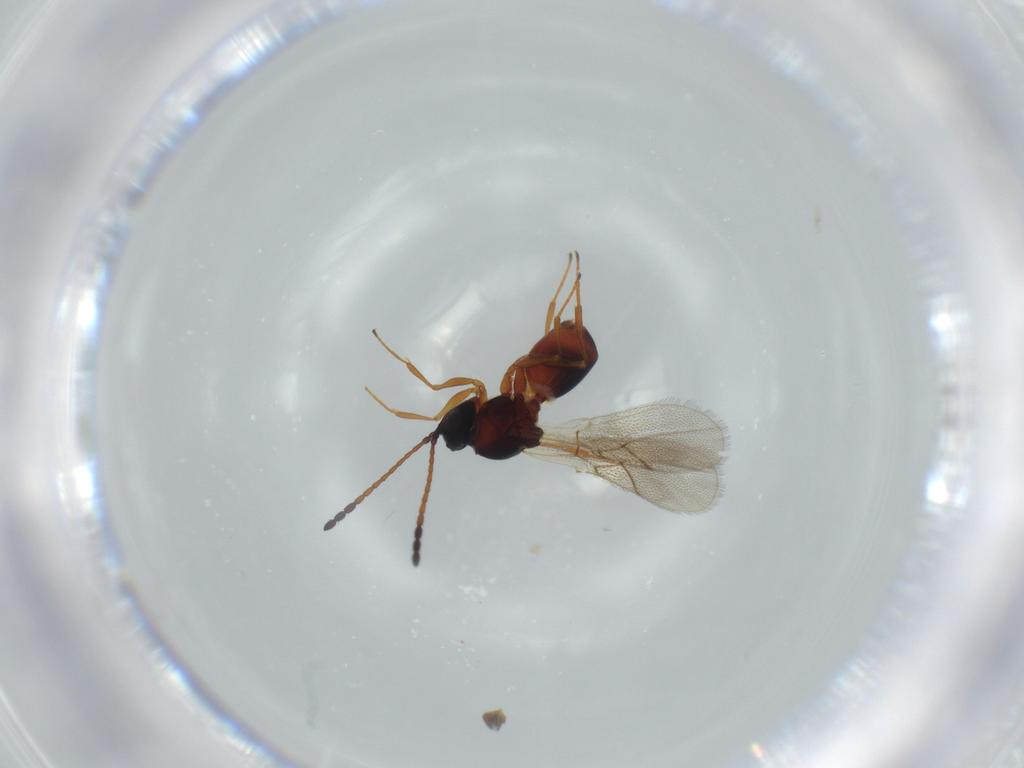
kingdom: Animalia
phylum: Arthropoda
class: Insecta
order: Hymenoptera
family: Figitidae
